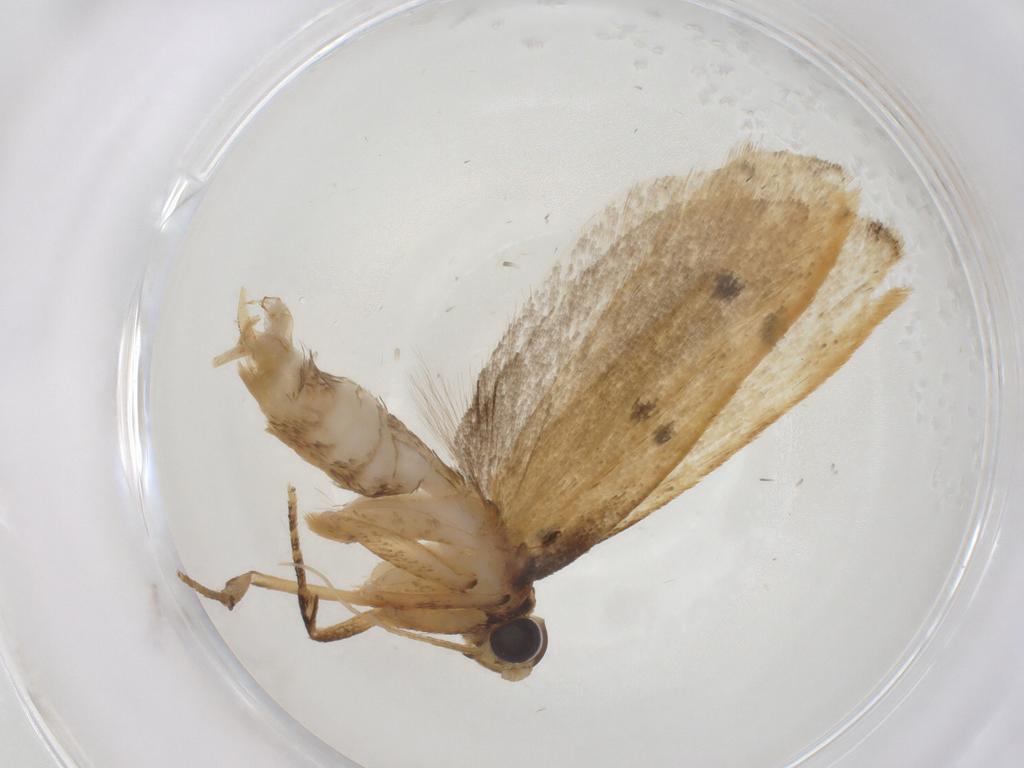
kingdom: Animalia
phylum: Arthropoda
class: Insecta
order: Lepidoptera
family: Lecithoceridae
